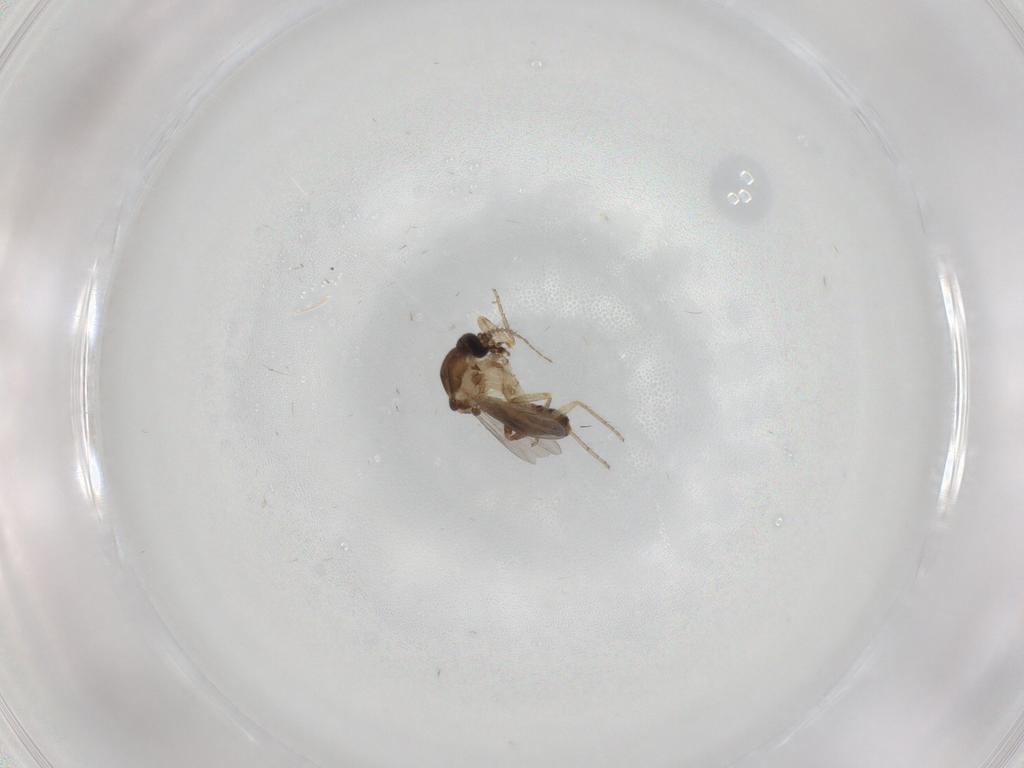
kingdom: Animalia
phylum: Arthropoda
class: Insecta
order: Diptera
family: Ceratopogonidae
